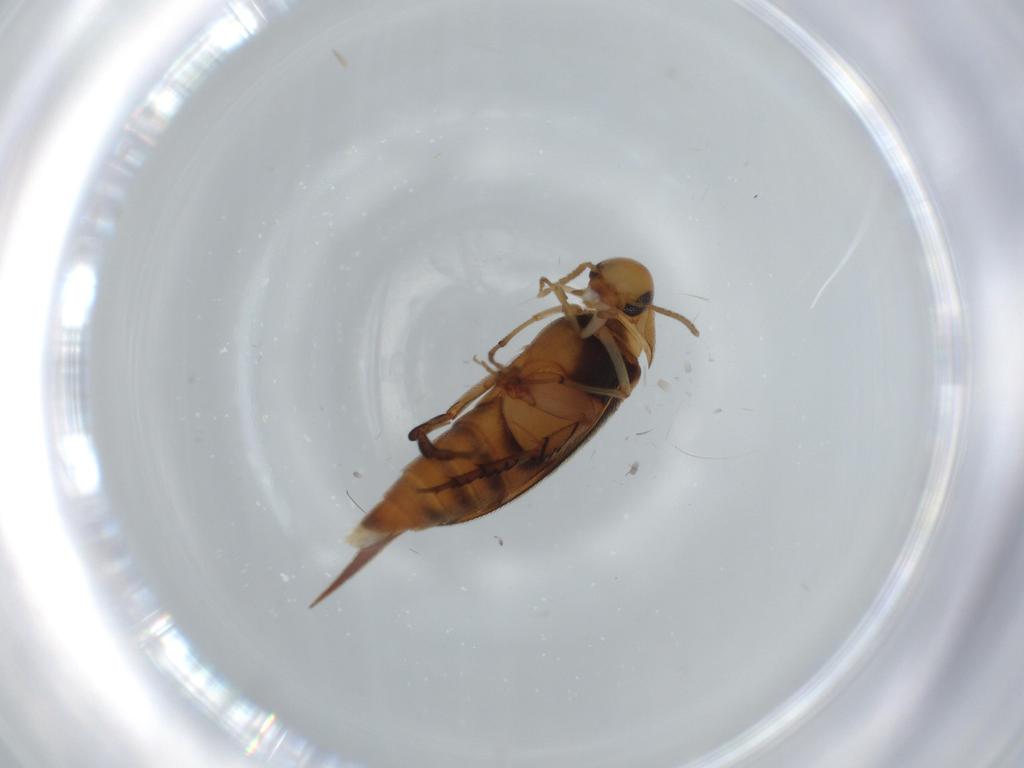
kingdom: Animalia
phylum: Arthropoda
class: Insecta
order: Coleoptera
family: Mordellidae
